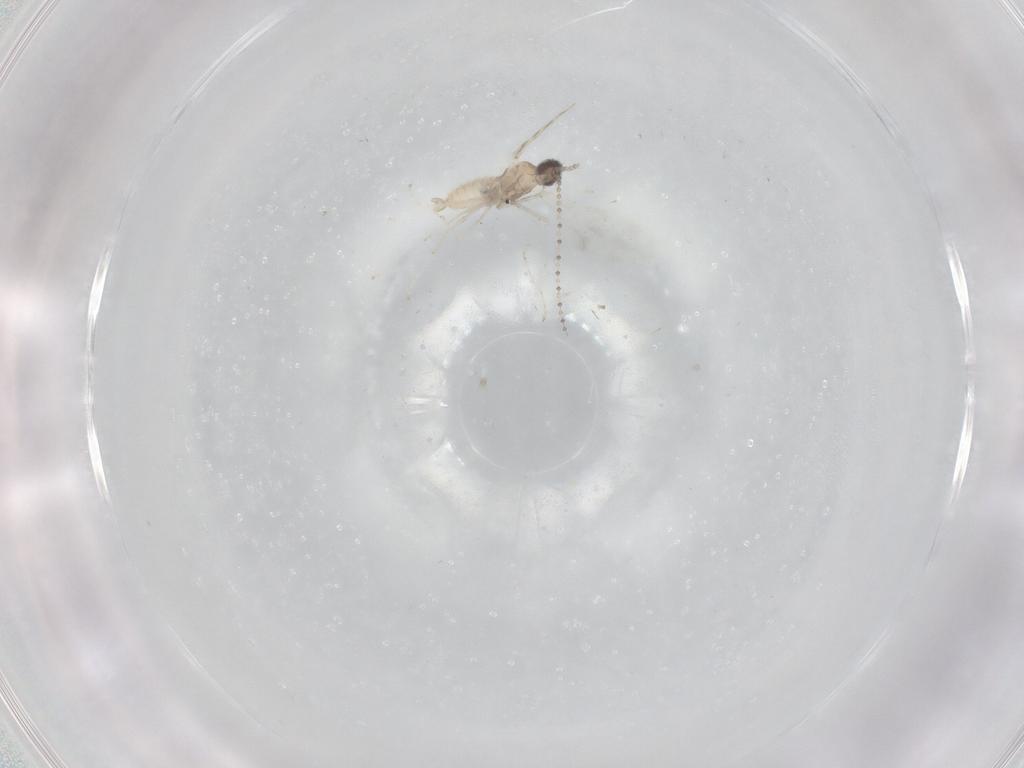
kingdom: Animalia
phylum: Arthropoda
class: Insecta
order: Diptera
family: Cecidomyiidae
